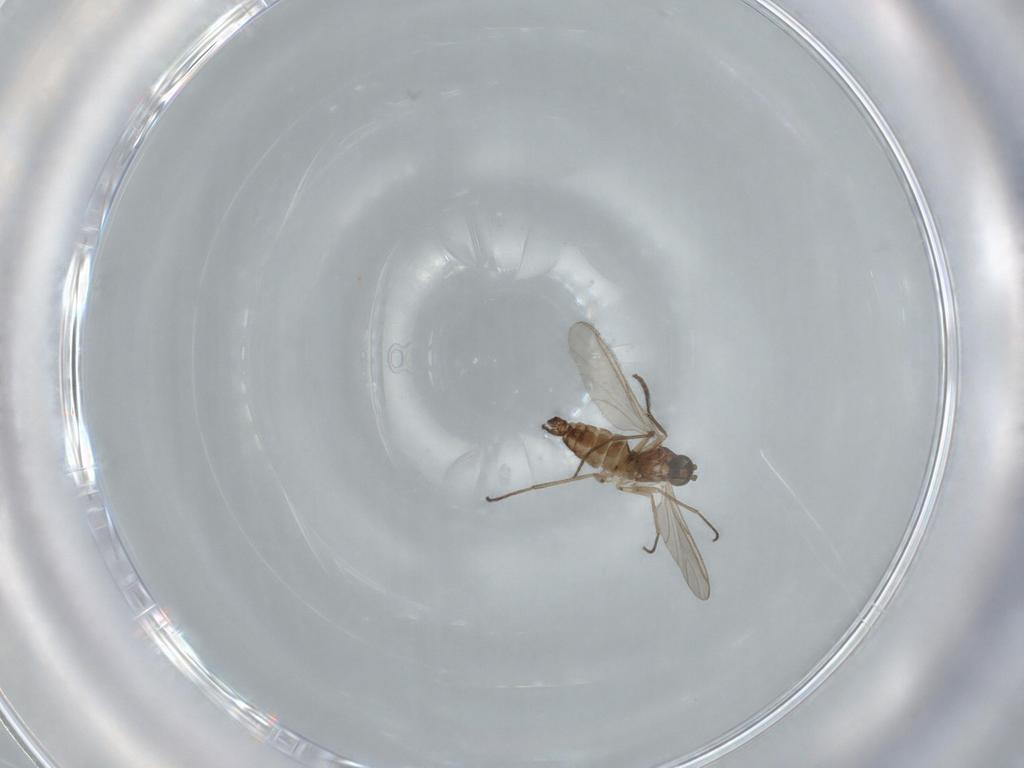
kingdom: Animalia
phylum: Arthropoda
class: Insecta
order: Diptera
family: Sciaridae
